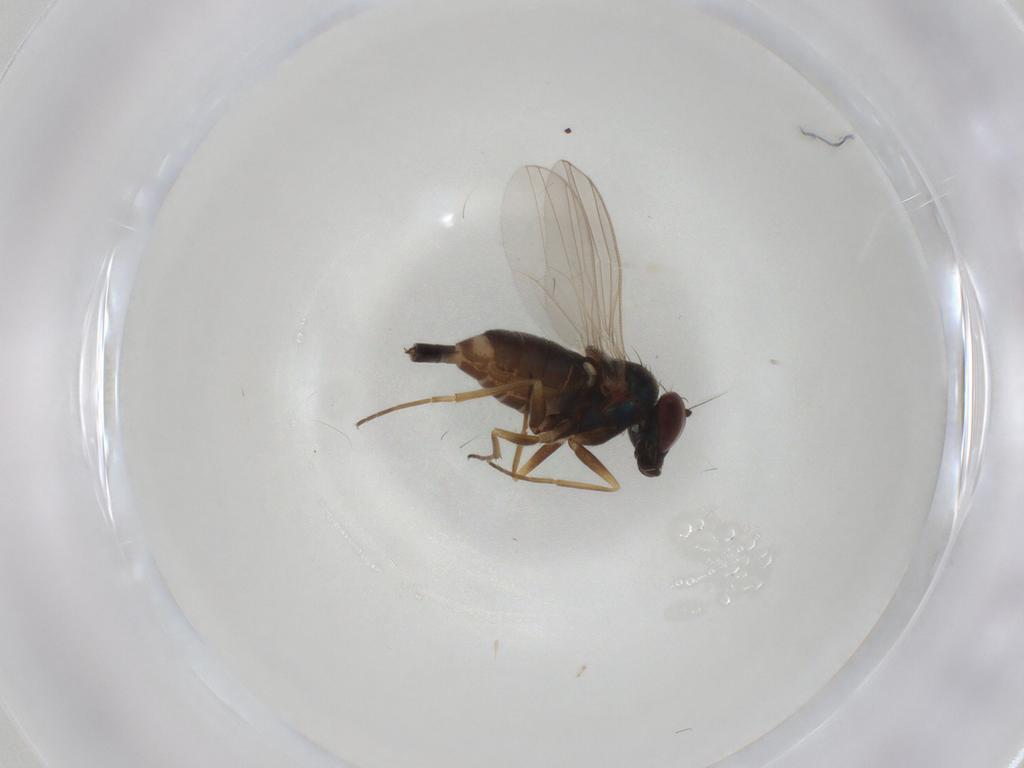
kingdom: Animalia
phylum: Arthropoda
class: Insecta
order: Diptera
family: Dolichopodidae
